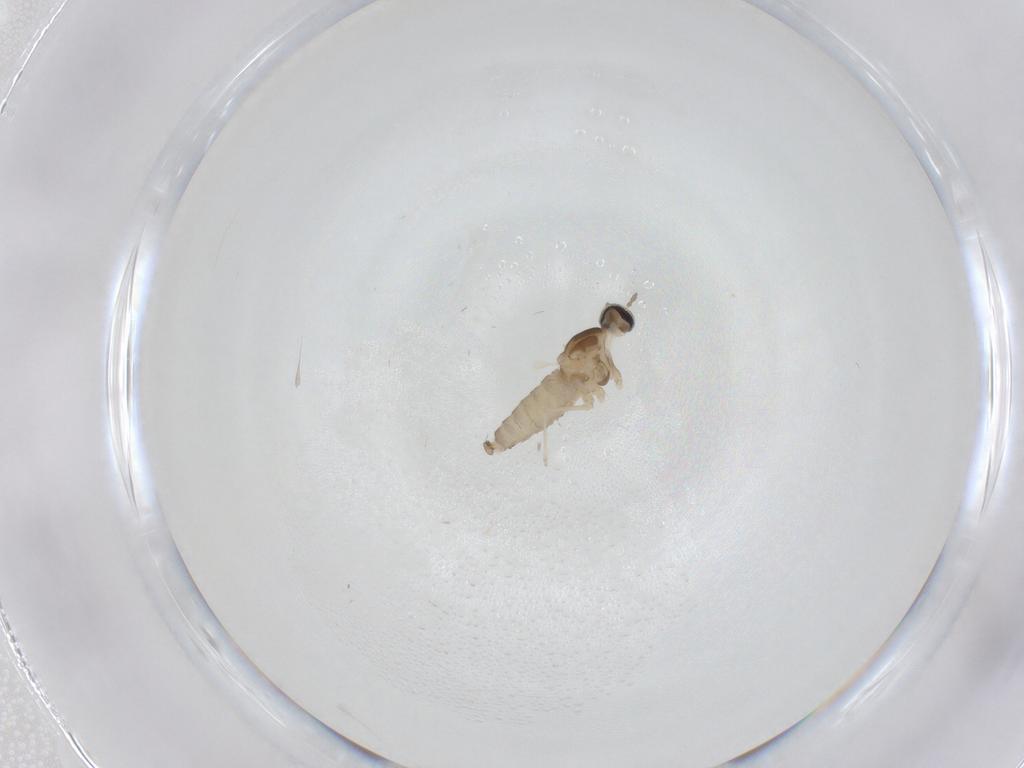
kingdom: Animalia
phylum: Arthropoda
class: Insecta
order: Diptera
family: Cecidomyiidae
